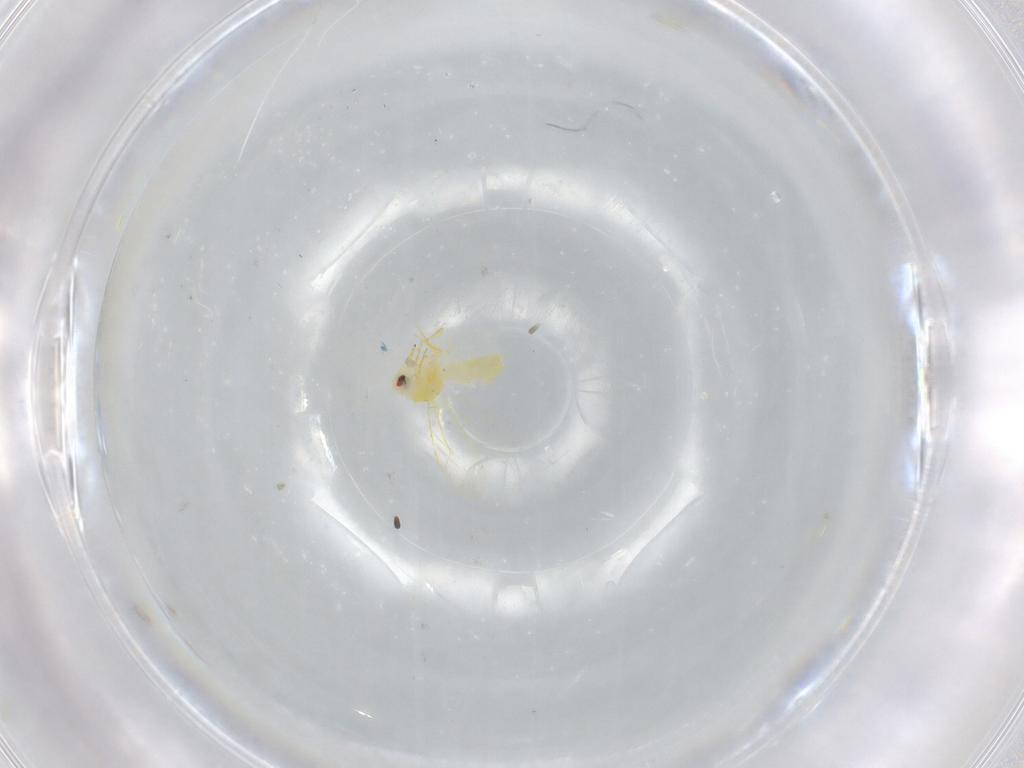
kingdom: Animalia
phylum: Arthropoda
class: Insecta
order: Hemiptera
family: Aleyrodidae
